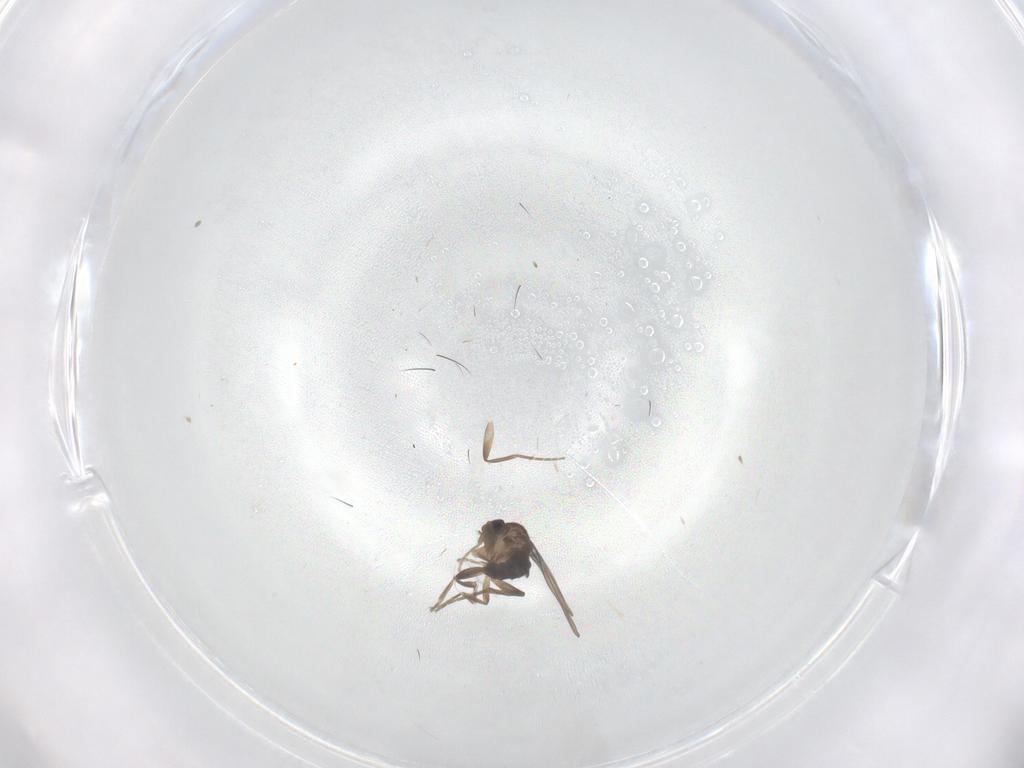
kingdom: Animalia
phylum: Arthropoda
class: Insecta
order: Diptera
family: Phoridae
